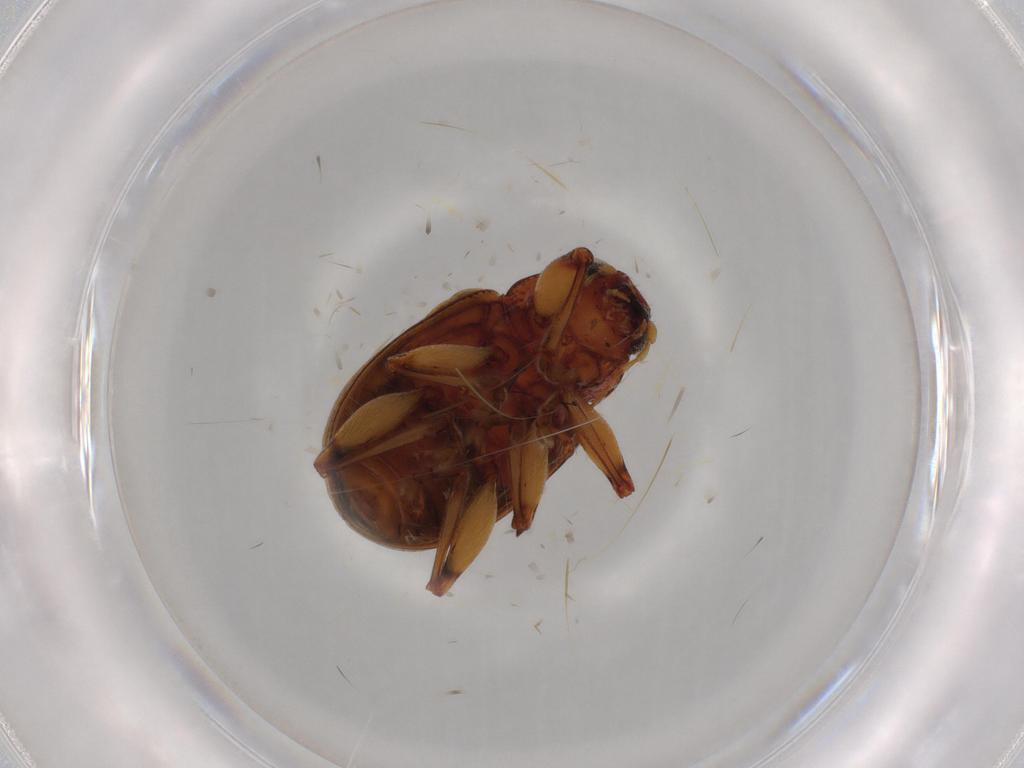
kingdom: Animalia
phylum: Arthropoda
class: Insecta
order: Coleoptera
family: Chrysomelidae
